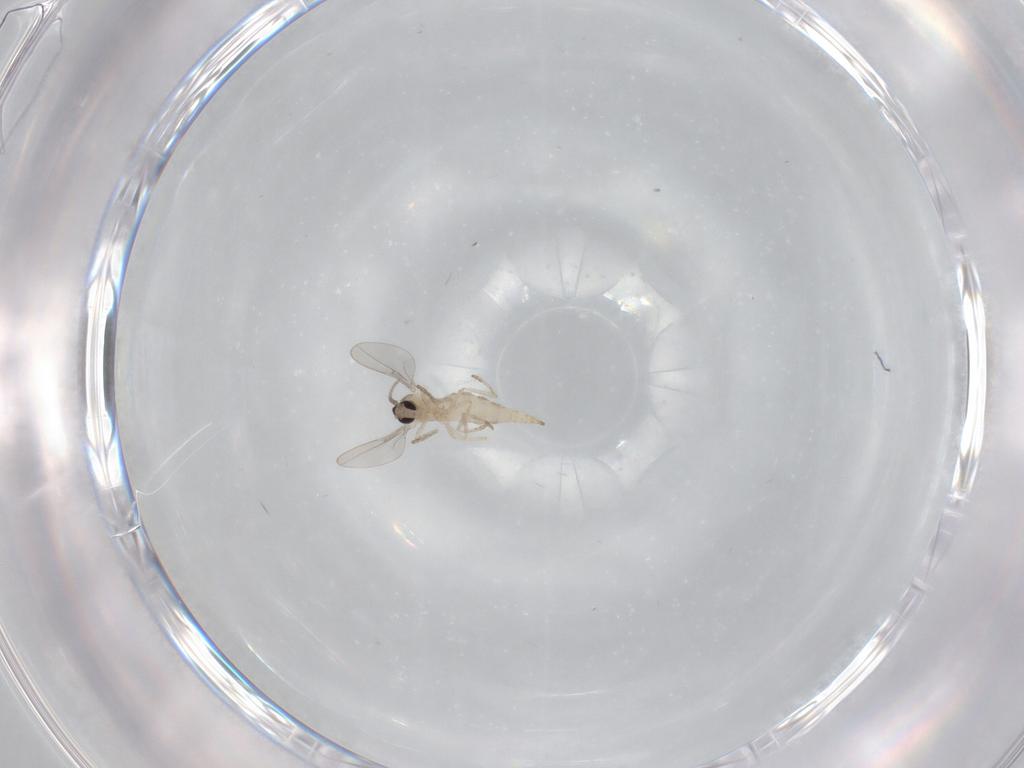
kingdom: Animalia
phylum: Arthropoda
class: Insecta
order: Diptera
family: Cecidomyiidae
